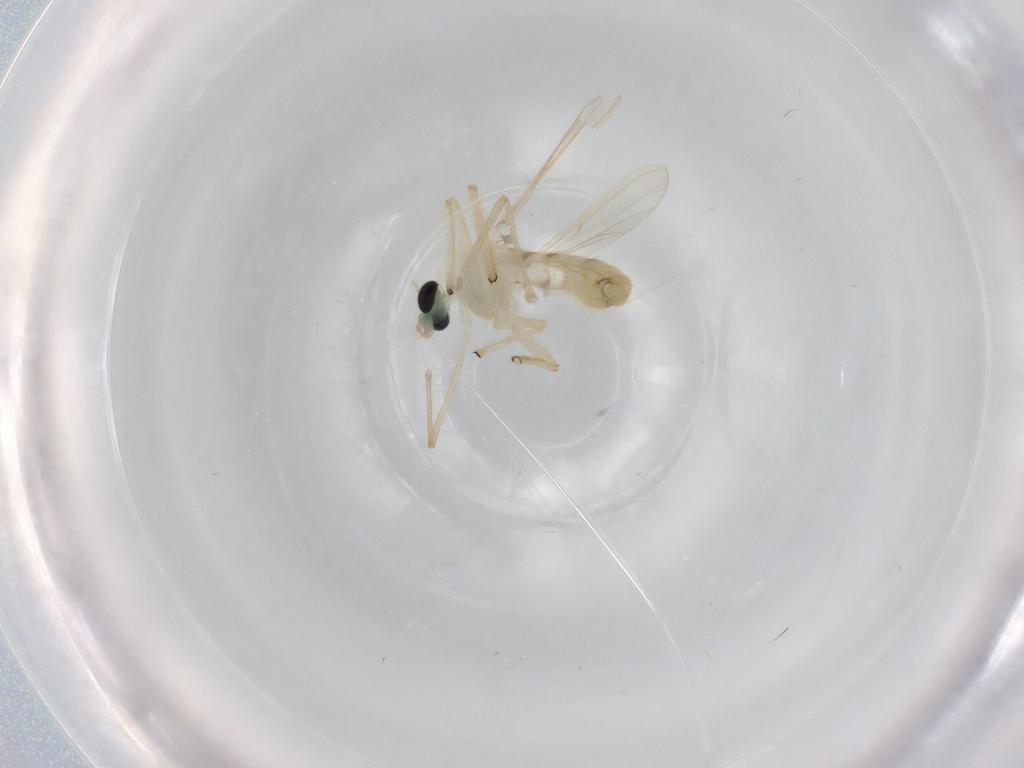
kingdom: Animalia
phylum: Arthropoda
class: Insecta
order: Diptera
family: Chironomidae
